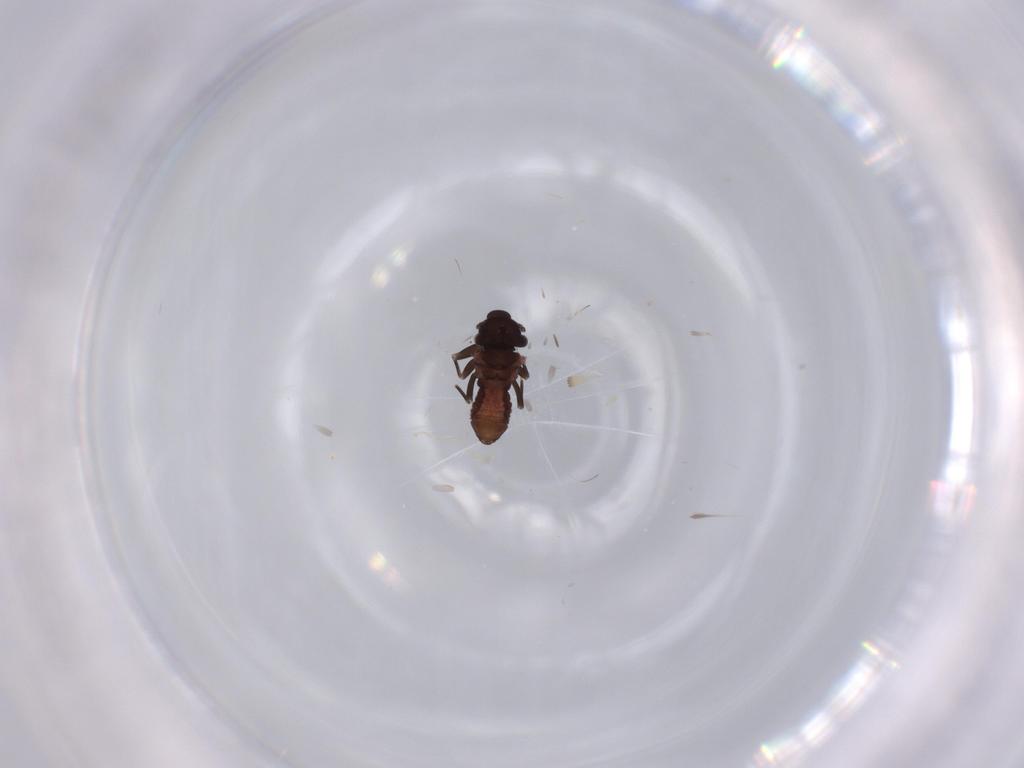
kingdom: Animalia
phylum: Arthropoda
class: Insecta
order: Psocodea
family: Lepidopsocidae
